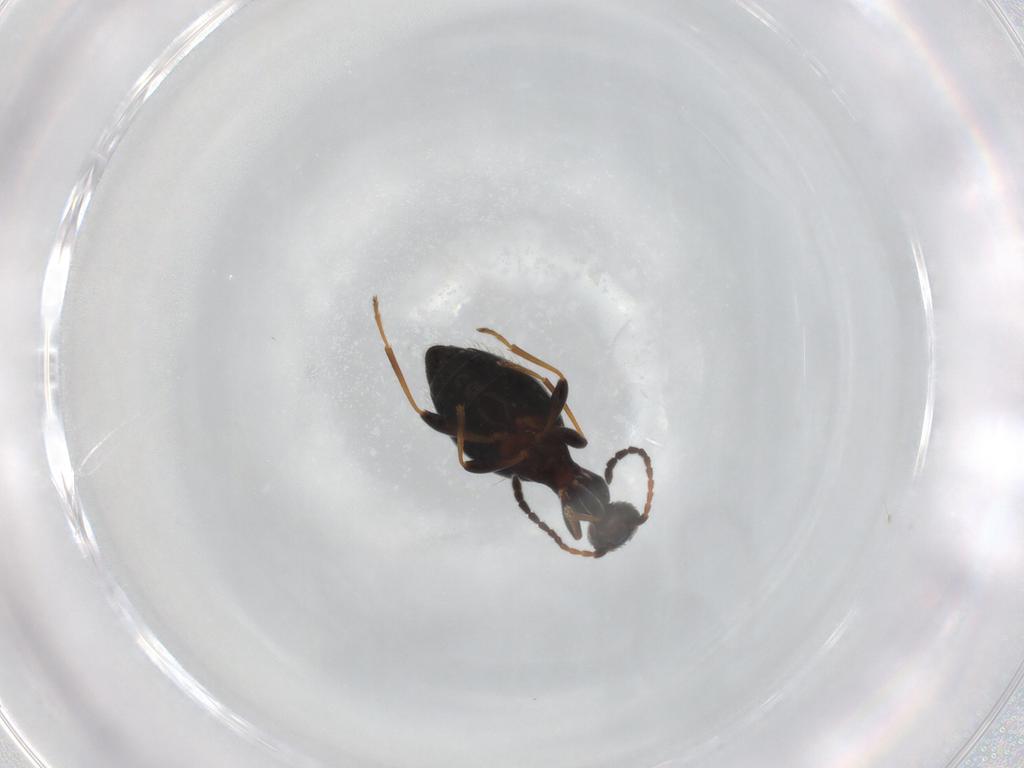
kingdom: Animalia
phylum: Arthropoda
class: Insecta
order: Coleoptera
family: Anthicidae
